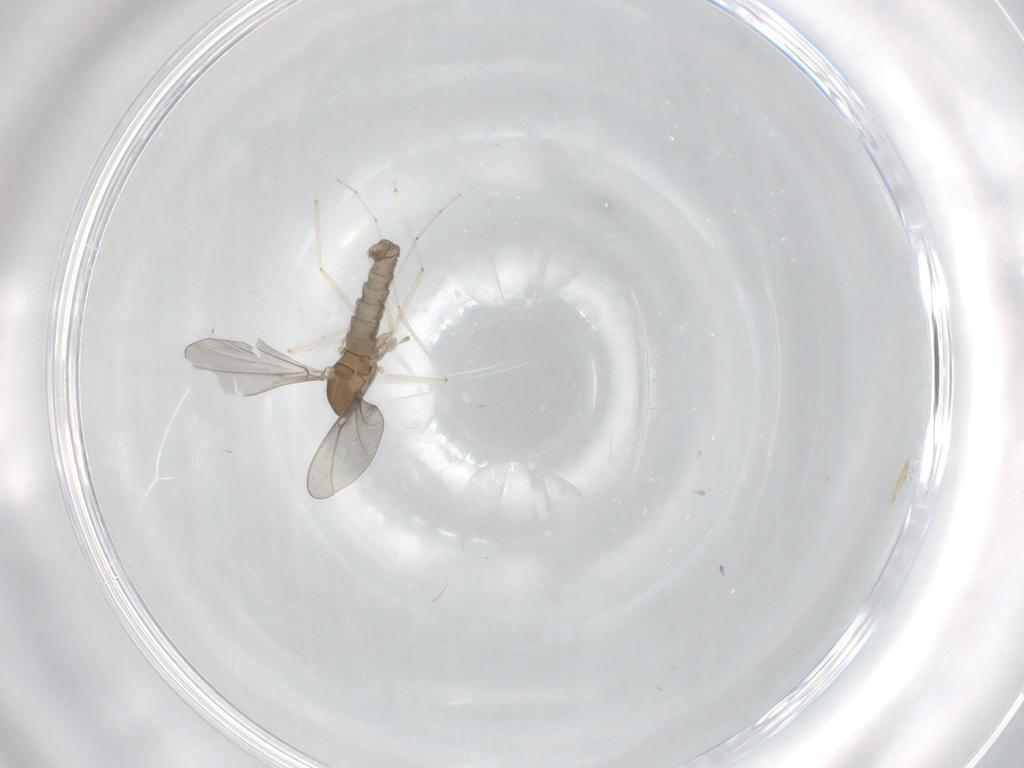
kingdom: Animalia
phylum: Arthropoda
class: Insecta
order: Diptera
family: Cecidomyiidae
